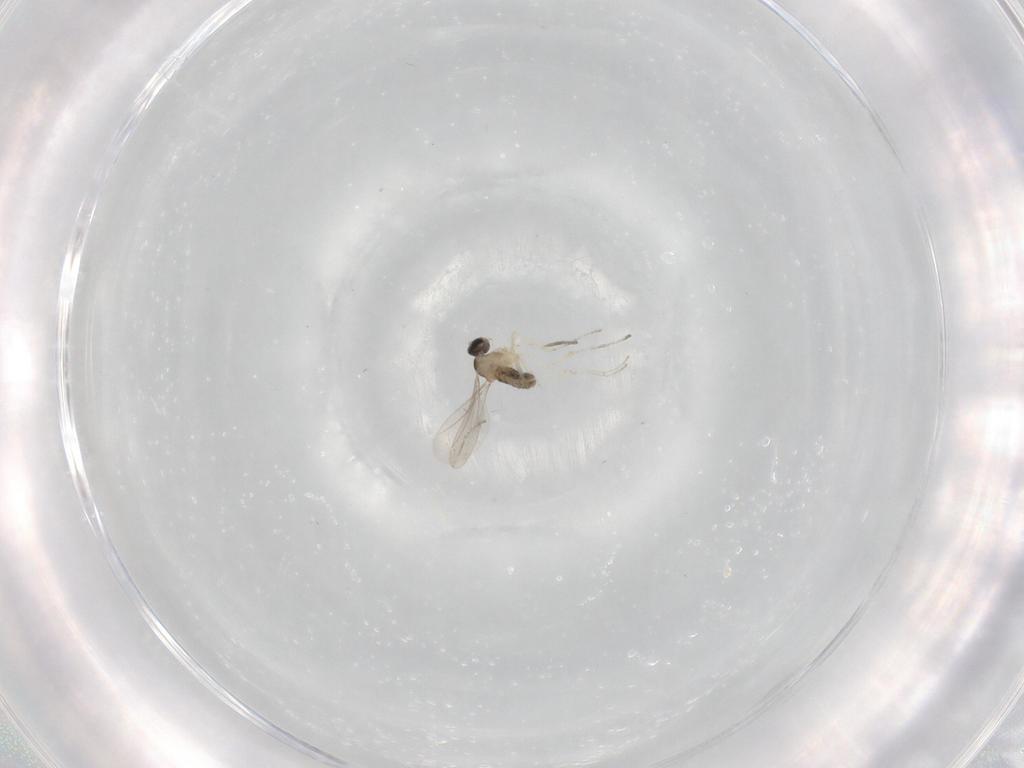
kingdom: Animalia
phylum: Arthropoda
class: Insecta
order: Diptera
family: Cecidomyiidae
